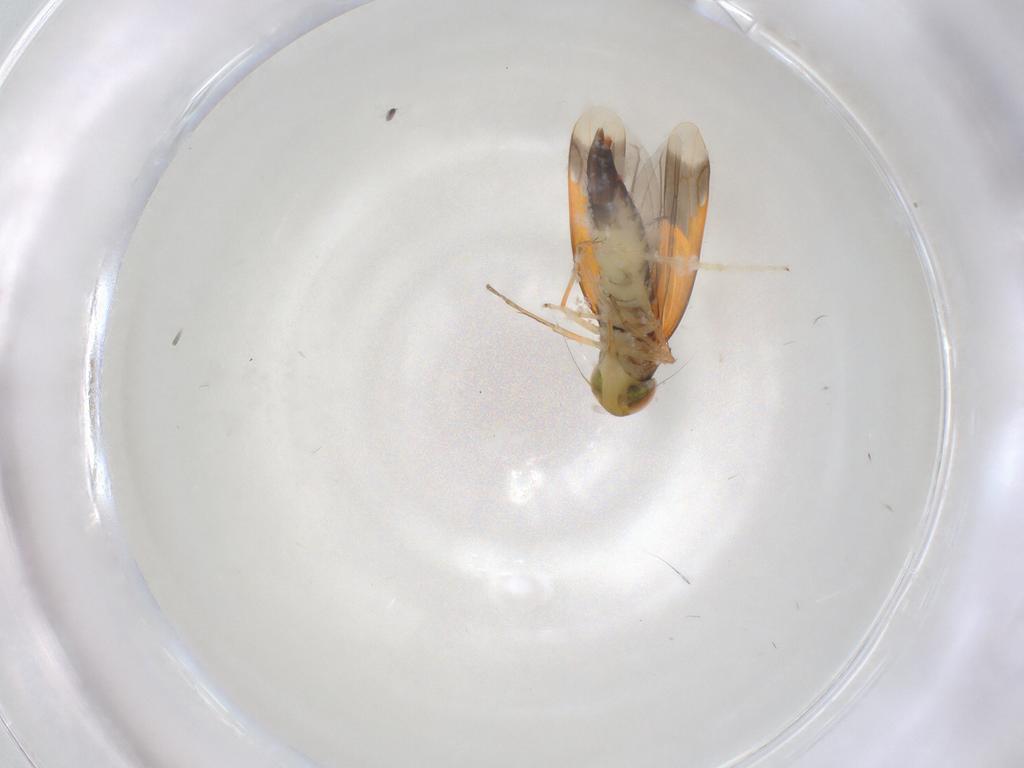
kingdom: Animalia
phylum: Arthropoda
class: Insecta
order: Hemiptera
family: Cicadellidae
